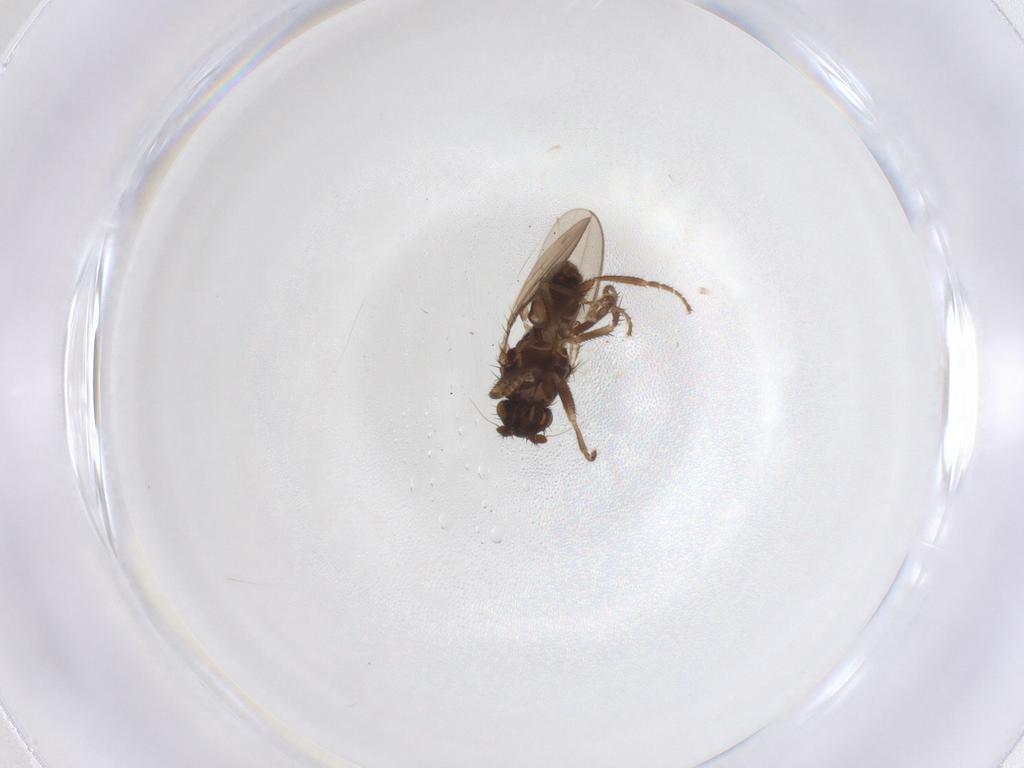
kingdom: Animalia
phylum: Arthropoda
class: Insecta
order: Diptera
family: Sphaeroceridae
